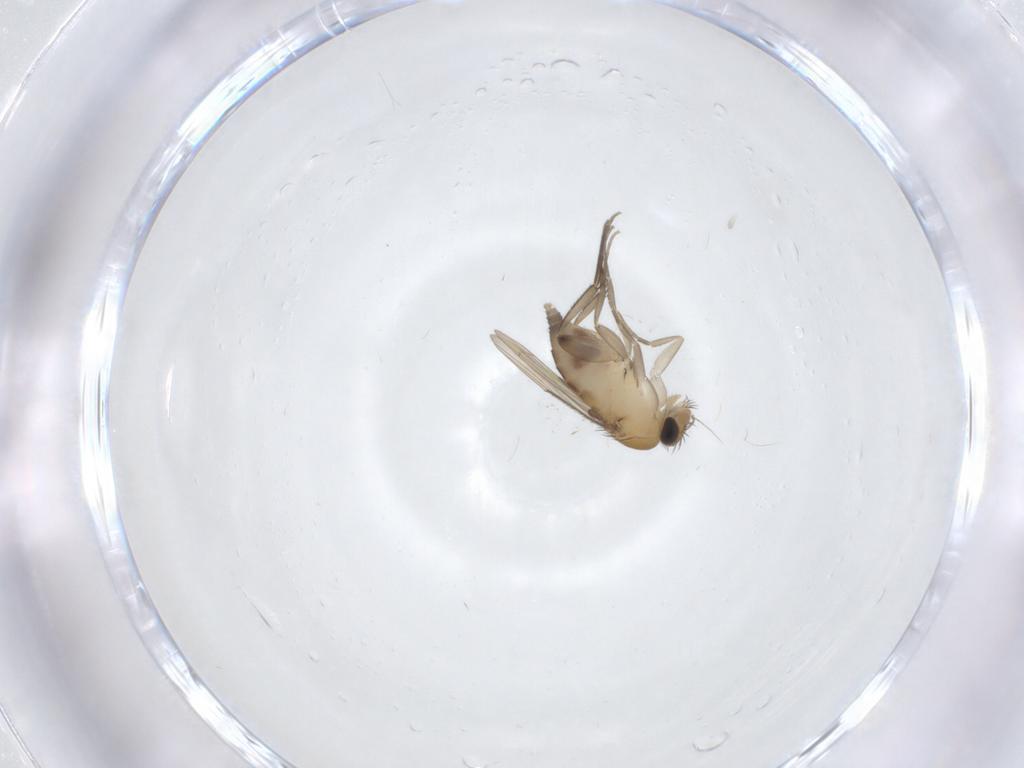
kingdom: Animalia
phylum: Arthropoda
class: Insecta
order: Diptera
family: Phoridae
